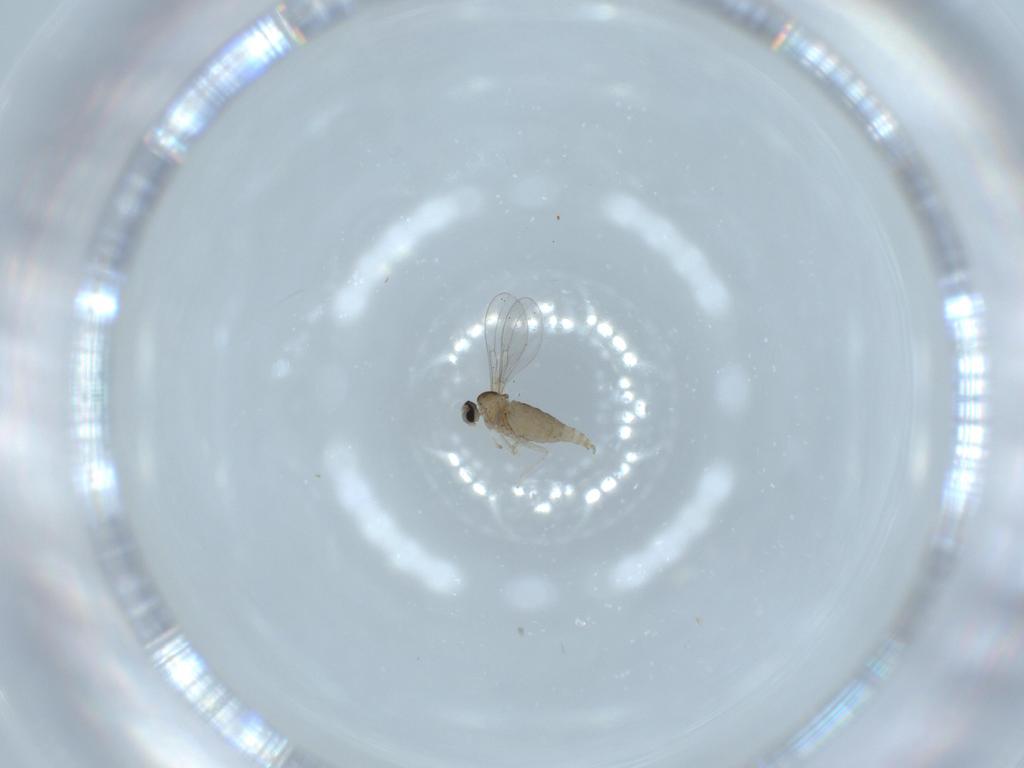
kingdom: Animalia
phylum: Arthropoda
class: Insecta
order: Diptera
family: Cecidomyiidae
